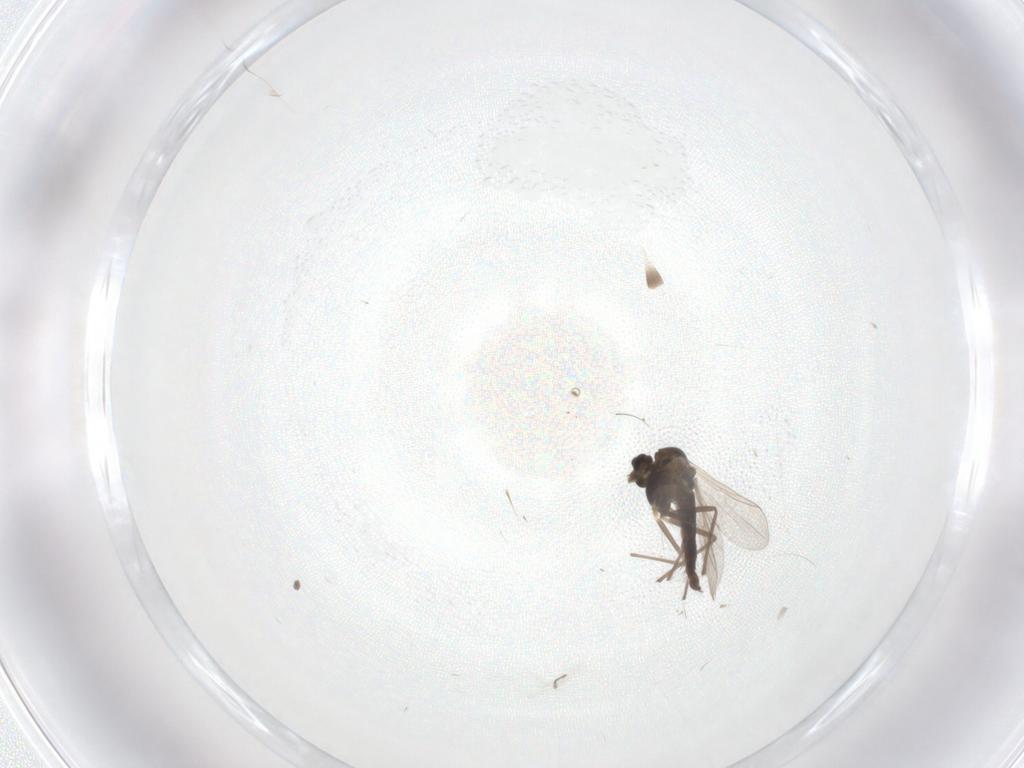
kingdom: Animalia
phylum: Arthropoda
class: Insecta
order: Diptera
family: Chironomidae
